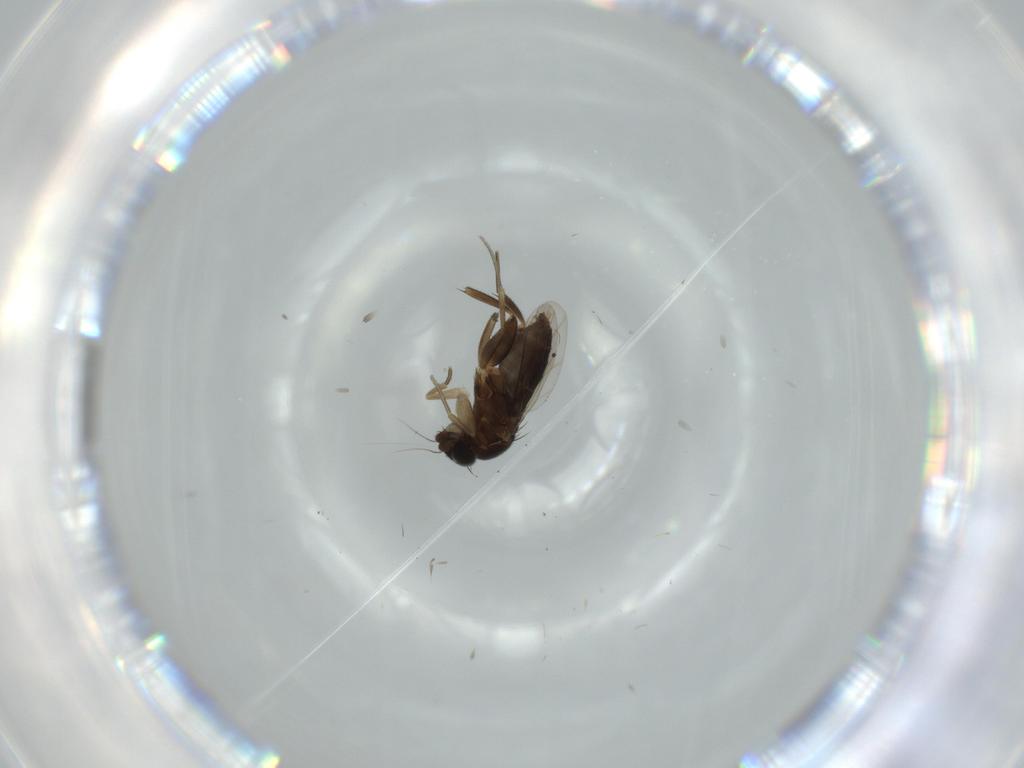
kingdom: Animalia
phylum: Arthropoda
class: Insecta
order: Diptera
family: Phoridae
